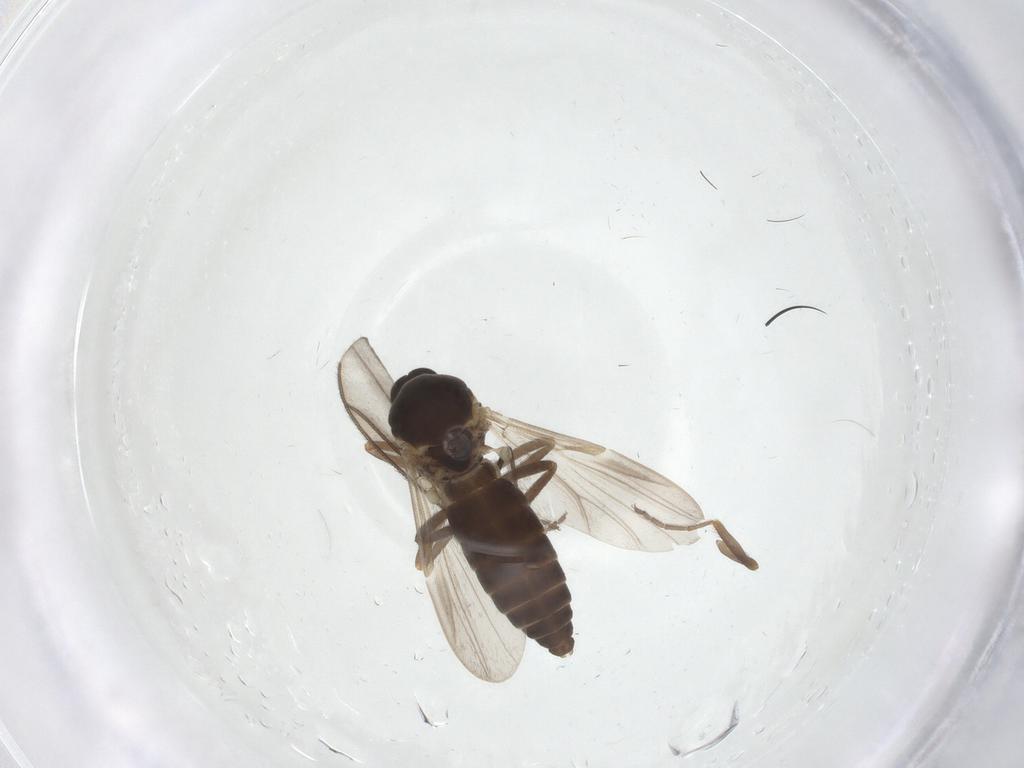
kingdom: Animalia
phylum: Arthropoda
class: Insecta
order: Diptera
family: Ceratopogonidae
